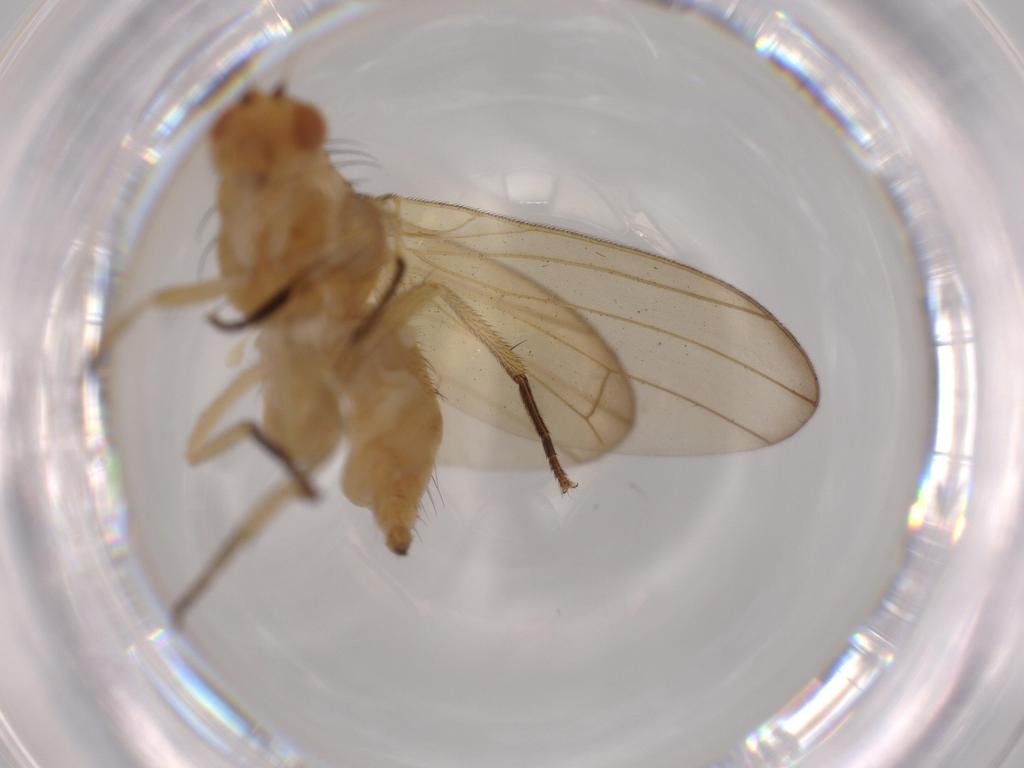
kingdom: Animalia
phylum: Arthropoda
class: Insecta
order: Diptera
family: Lauxaniidae
